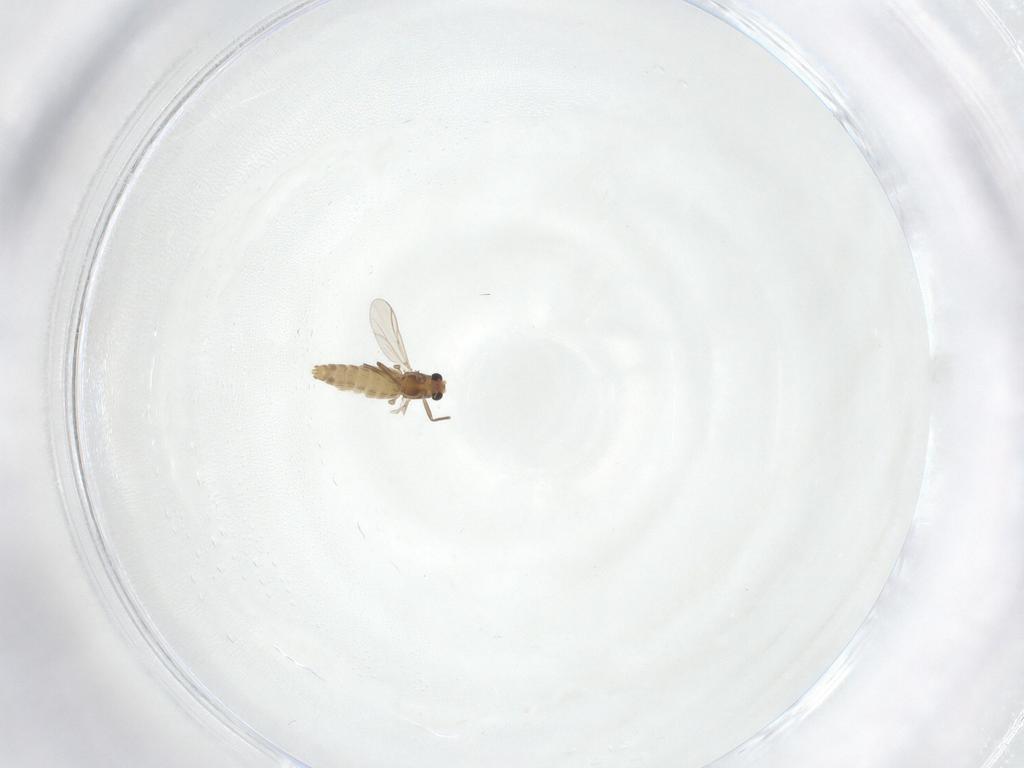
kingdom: Animalia
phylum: Arthropoda
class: Insecta
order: Diptera
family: Chironomidae
